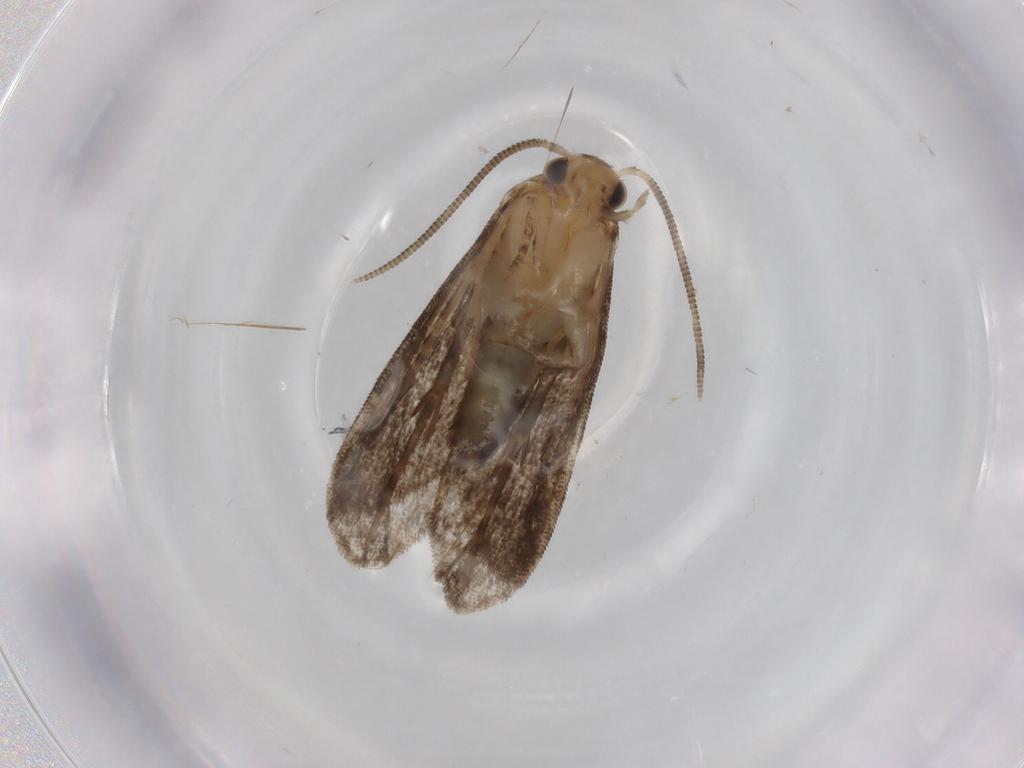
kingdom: Animalia
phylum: Arthropoda
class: Insecta
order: Lepidoptera
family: Dryadaulidae
